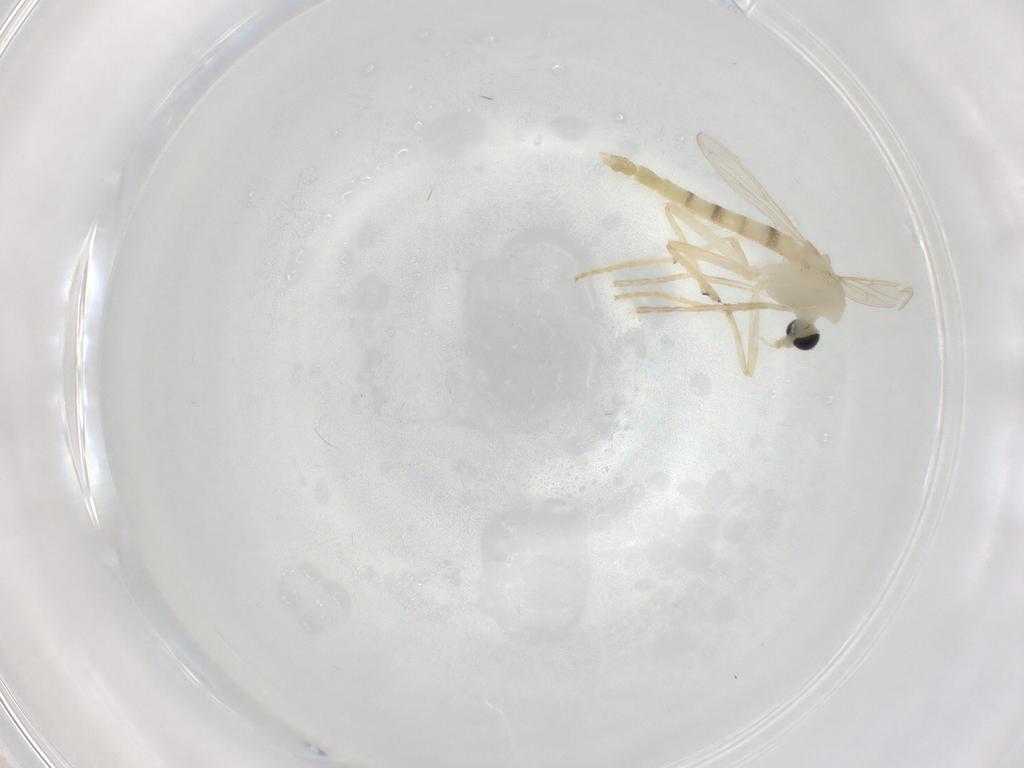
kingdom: Animalia
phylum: Arthropoda
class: Insecta
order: Diptera
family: Chironomidae
